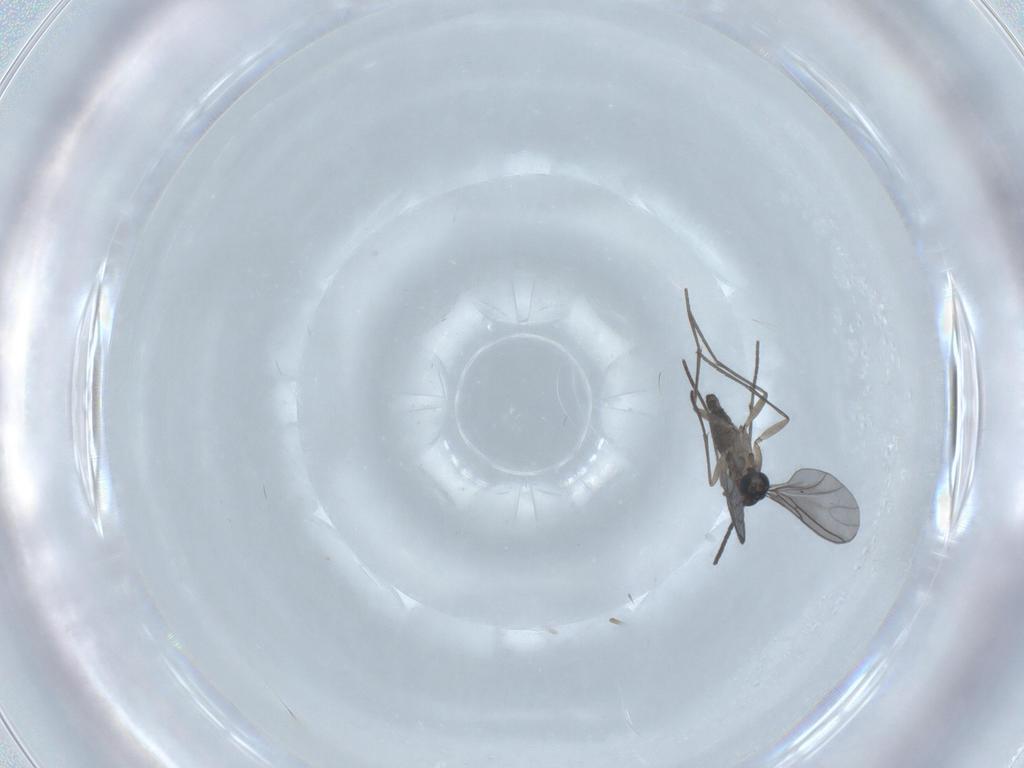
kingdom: Animalia
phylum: Arthropoda
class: Insecta
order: Diptera
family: Sciaridae
